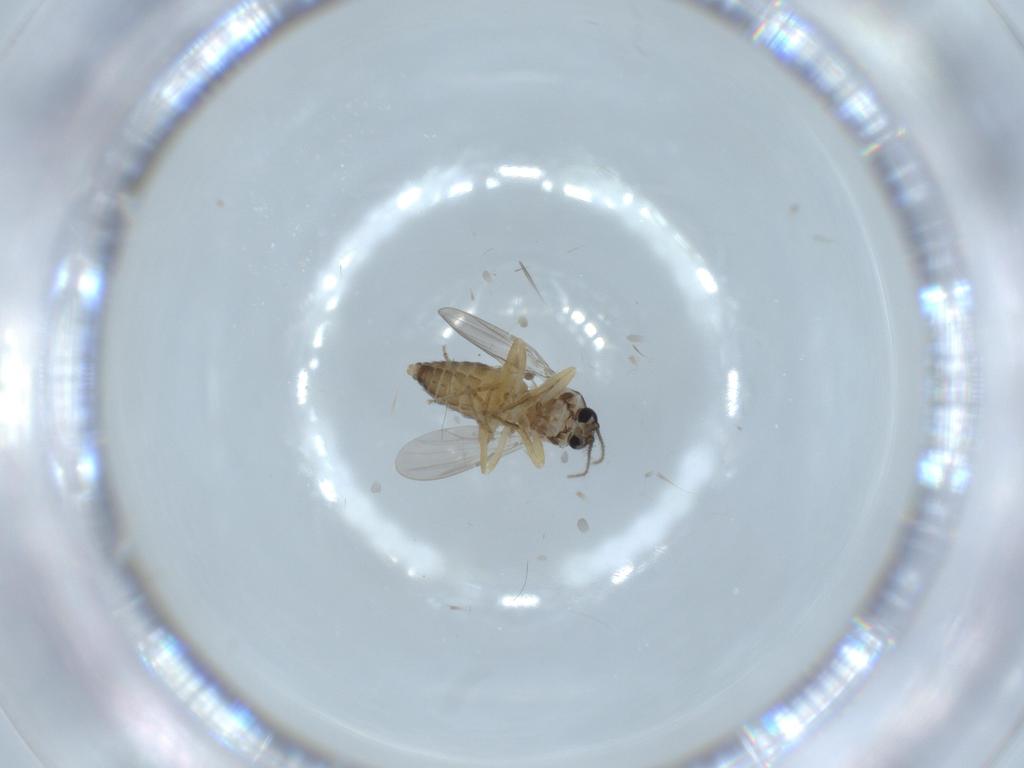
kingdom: Animalia
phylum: Arthropoda
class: Insecta
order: Diptera
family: Ceratopogonidae
